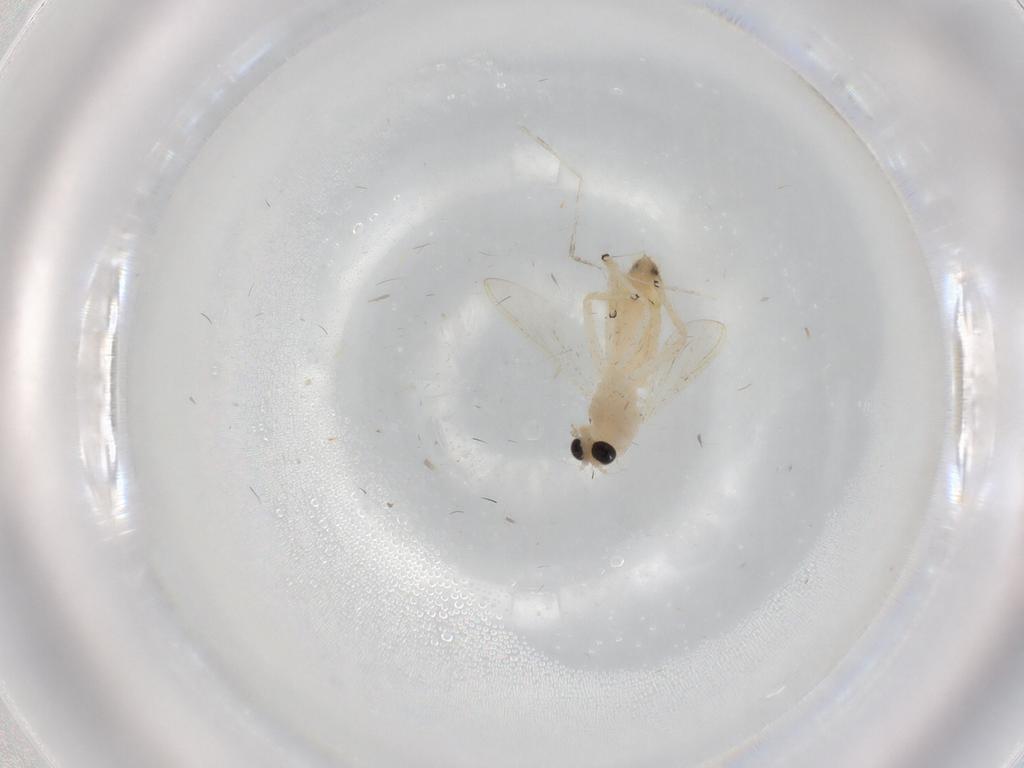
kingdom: Animalia
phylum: Arthropoda
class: Insecta
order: Diptera
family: Chironomidae
